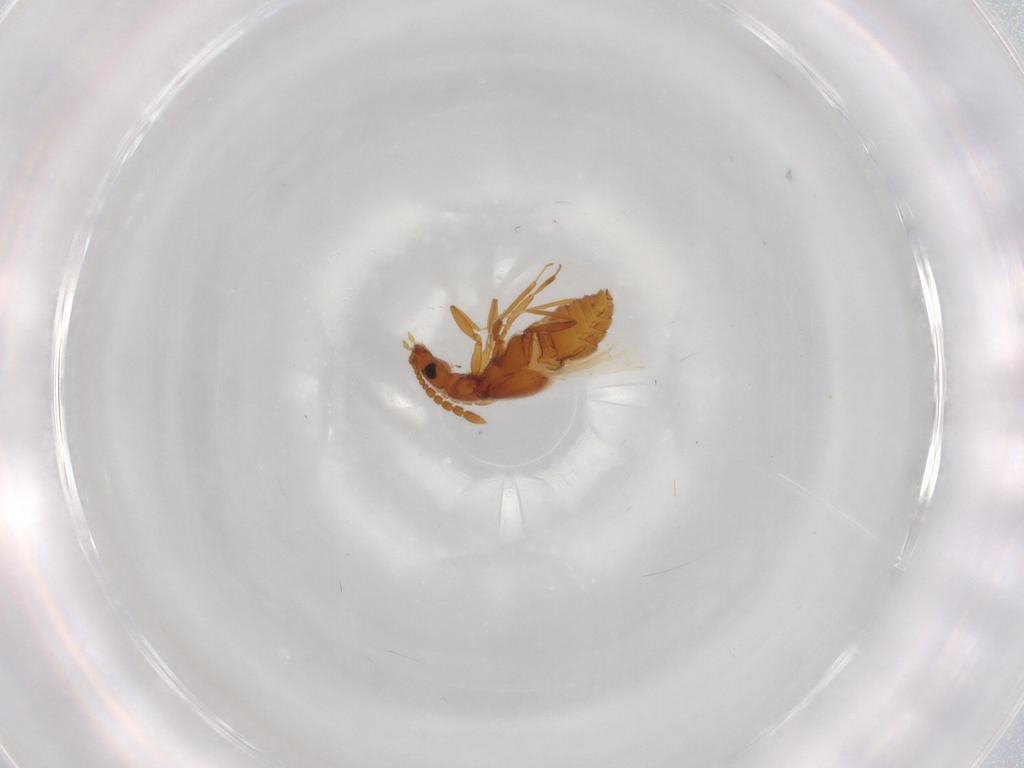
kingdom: Animalia
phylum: Arthropoda
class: Insecta
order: Coleoptera
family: Staphylinidae
